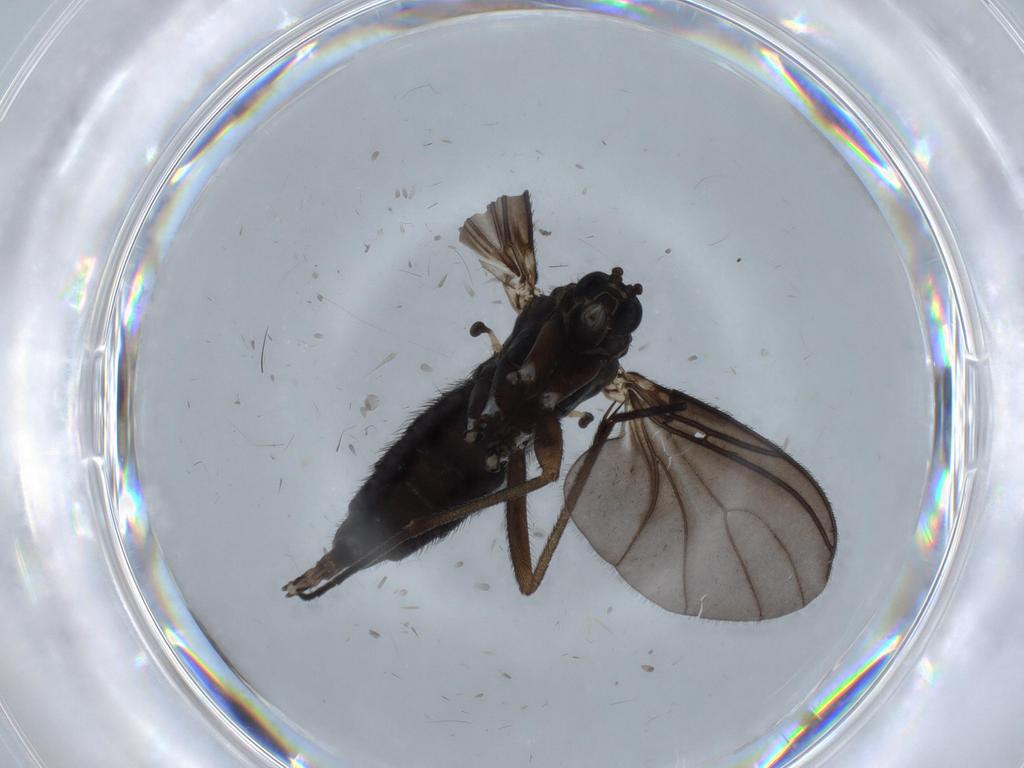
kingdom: Animalia
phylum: Arthropoda
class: Insecta
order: Diptera
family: Sciaridae
